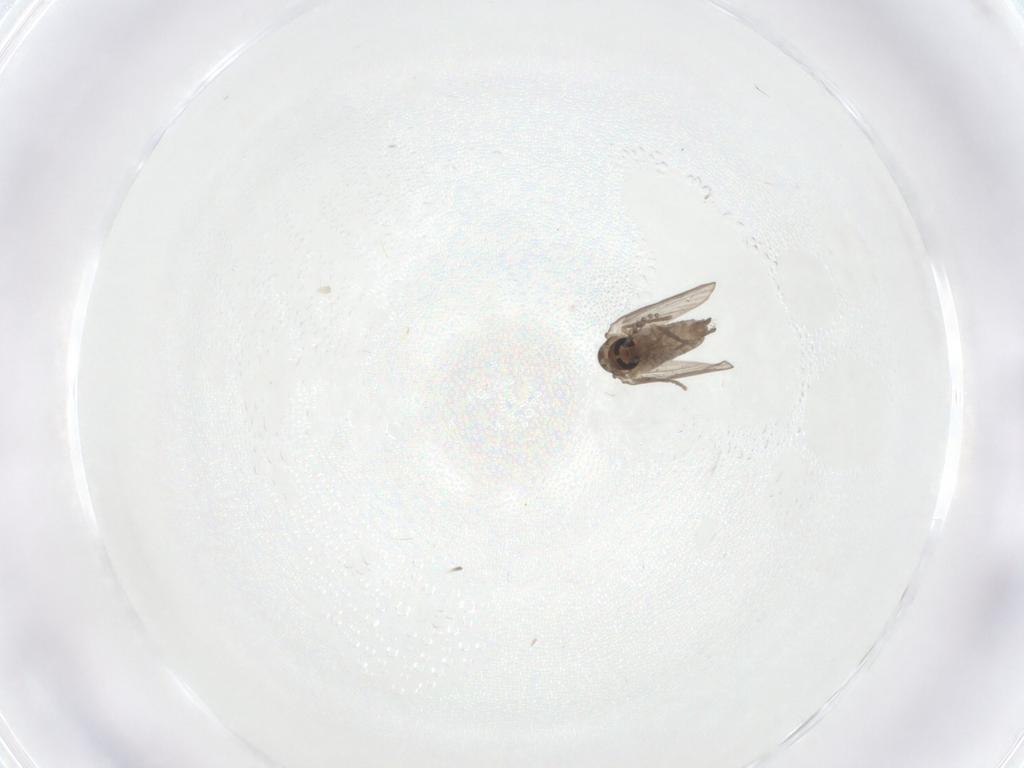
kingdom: Animalia
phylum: Arthropoda
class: Insecta
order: Diptera
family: Psychodidae
